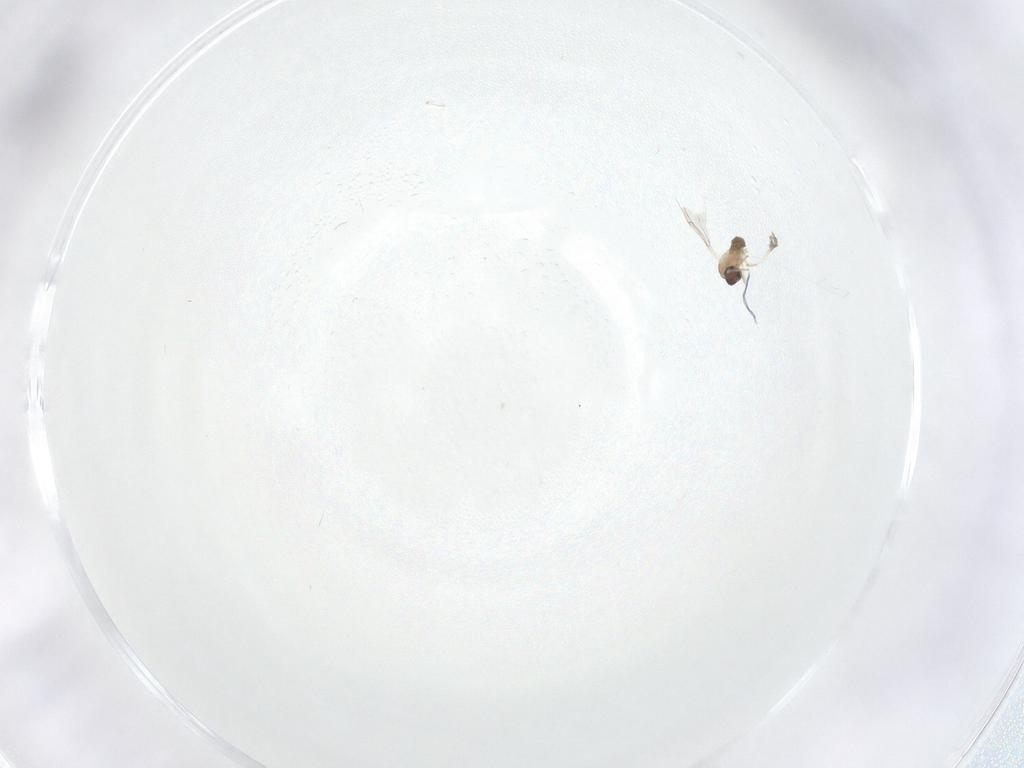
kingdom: Animalia
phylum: Arthropoda
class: Insecta
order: Diptera
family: Cecidomyiidae
